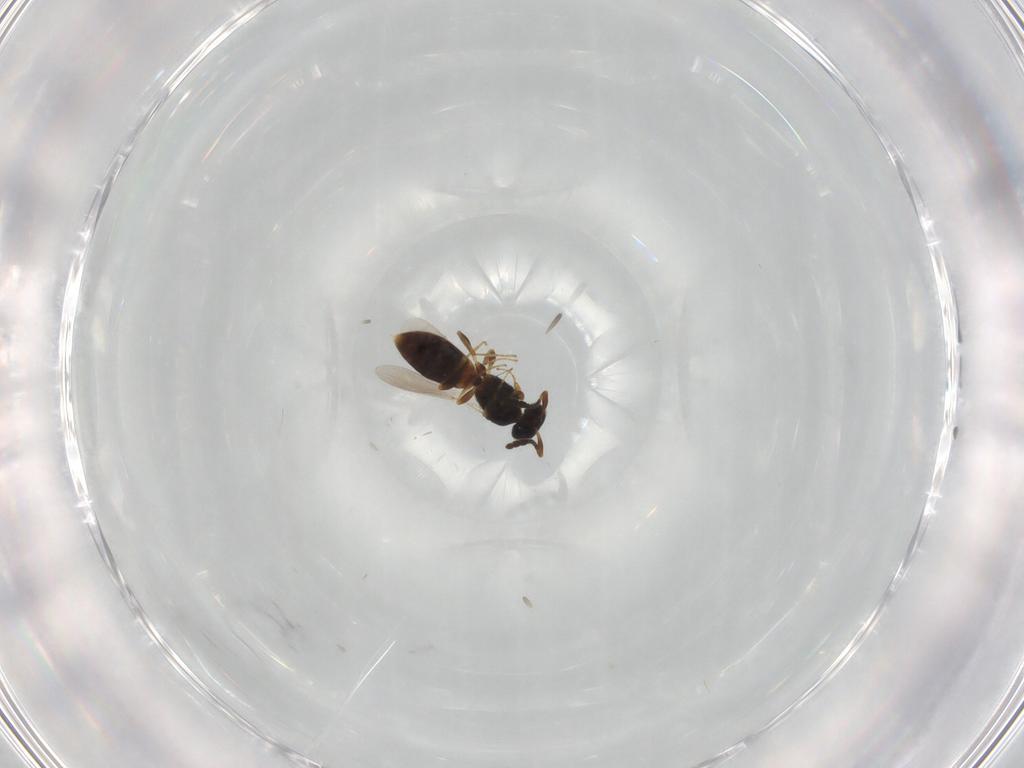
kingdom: Animalia
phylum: Arthropoda
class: Insecta
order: Hymenoptera
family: Platygastridae
